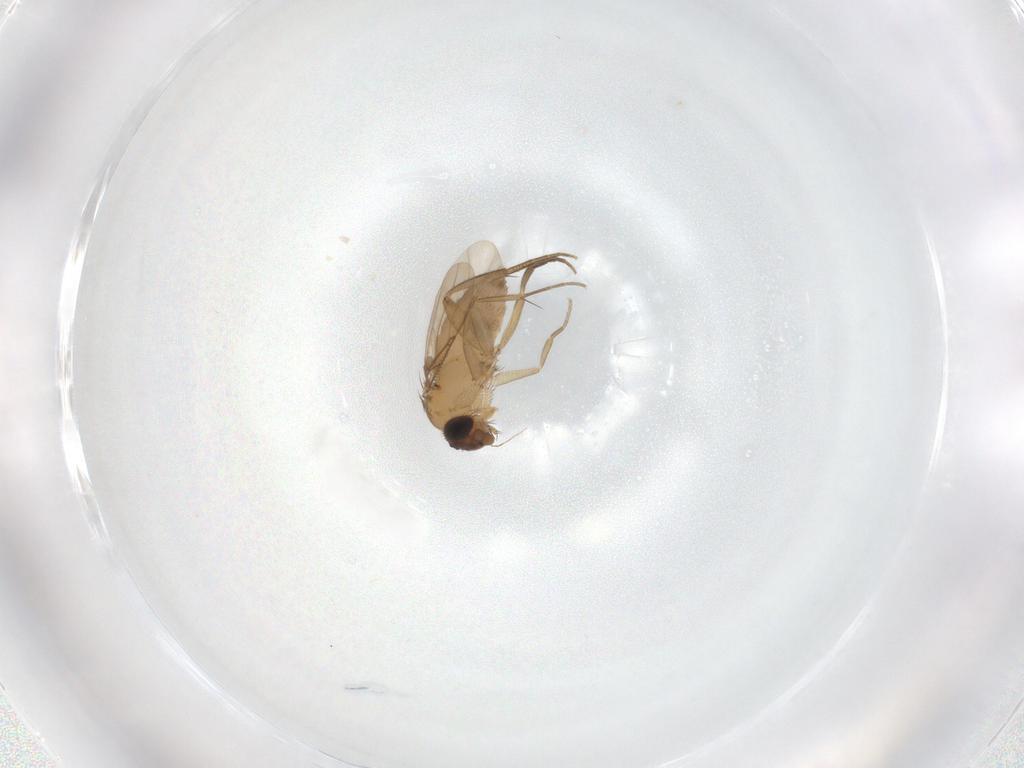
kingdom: Animalia
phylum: Arthropoda
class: Insecta
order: Diptera
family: Phoridae
